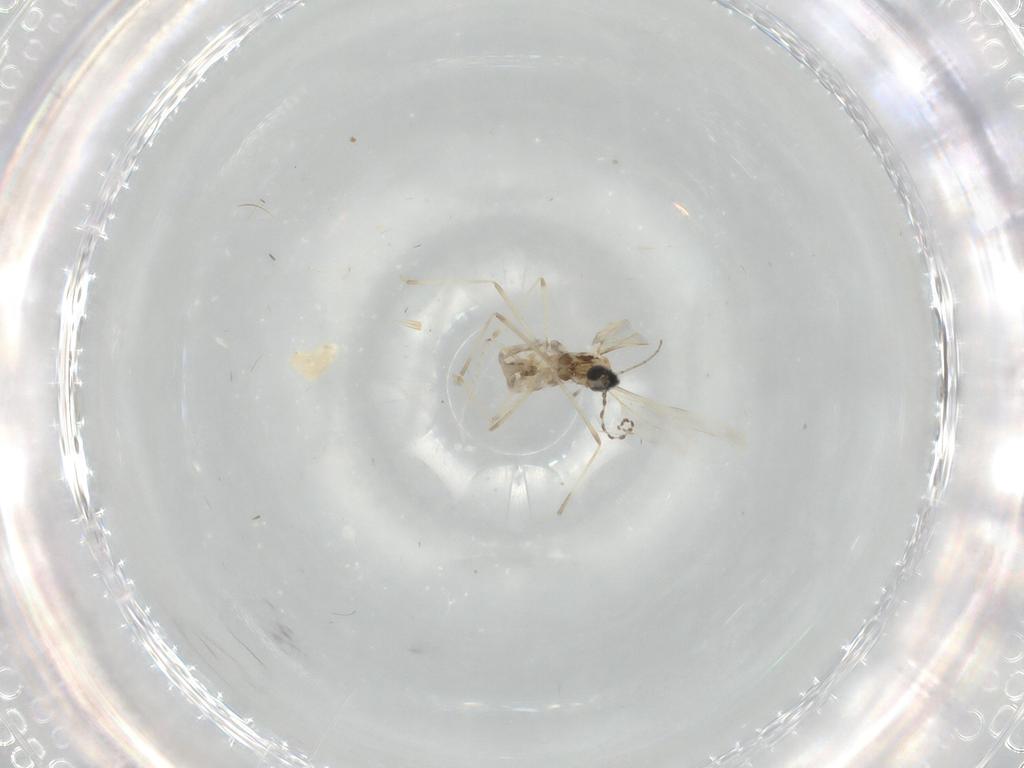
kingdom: Animalia
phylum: Arthropoda
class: Insecta
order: Diptera
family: Cecidomyiidae
